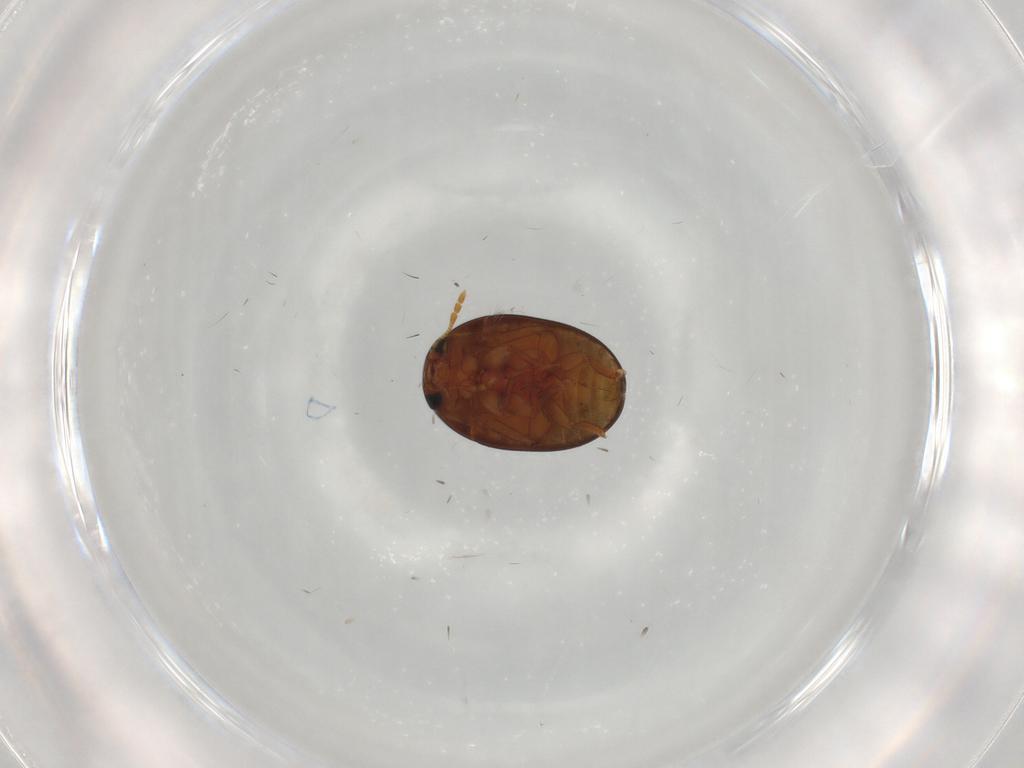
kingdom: Animalia
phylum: Arthropoda
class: Insecta
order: Coleoptera
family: Phalacridae
